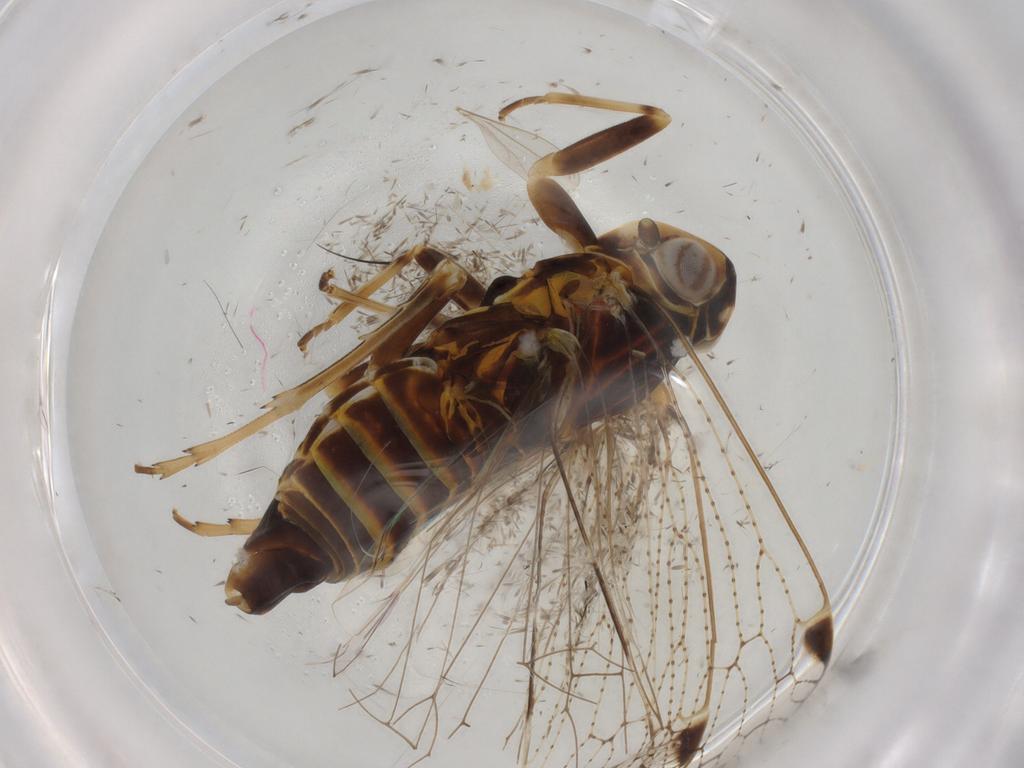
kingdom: Animalia
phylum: Arthropoda
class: Insecta
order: Hemiptera
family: Cixiidae
